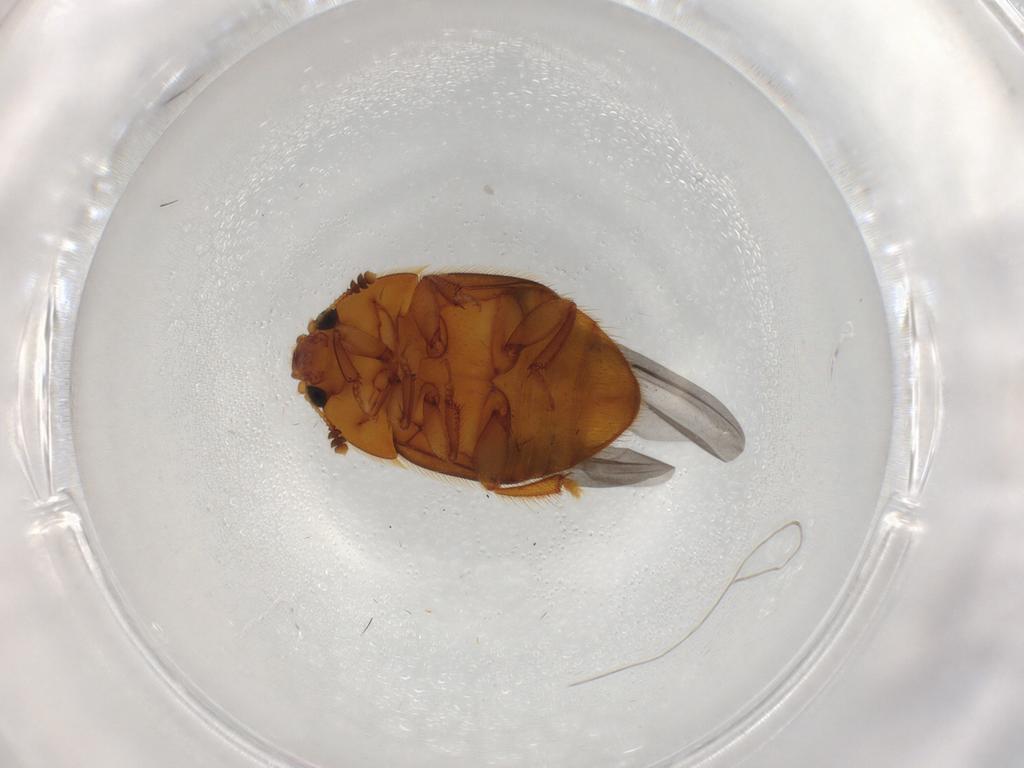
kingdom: Animalia
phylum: Arthropoda
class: Insecta
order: Coleoptera
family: Nitidulidae
